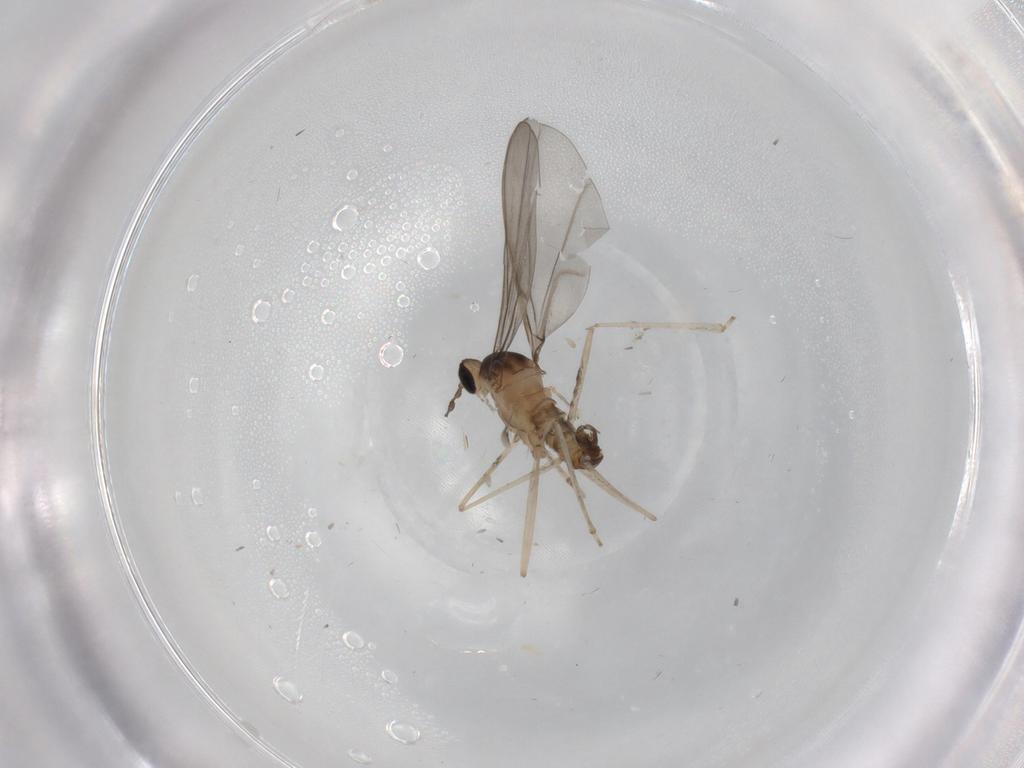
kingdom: Animalia
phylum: Arthropoda
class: Insecta
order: Diptera
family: Cecidomyiidae
